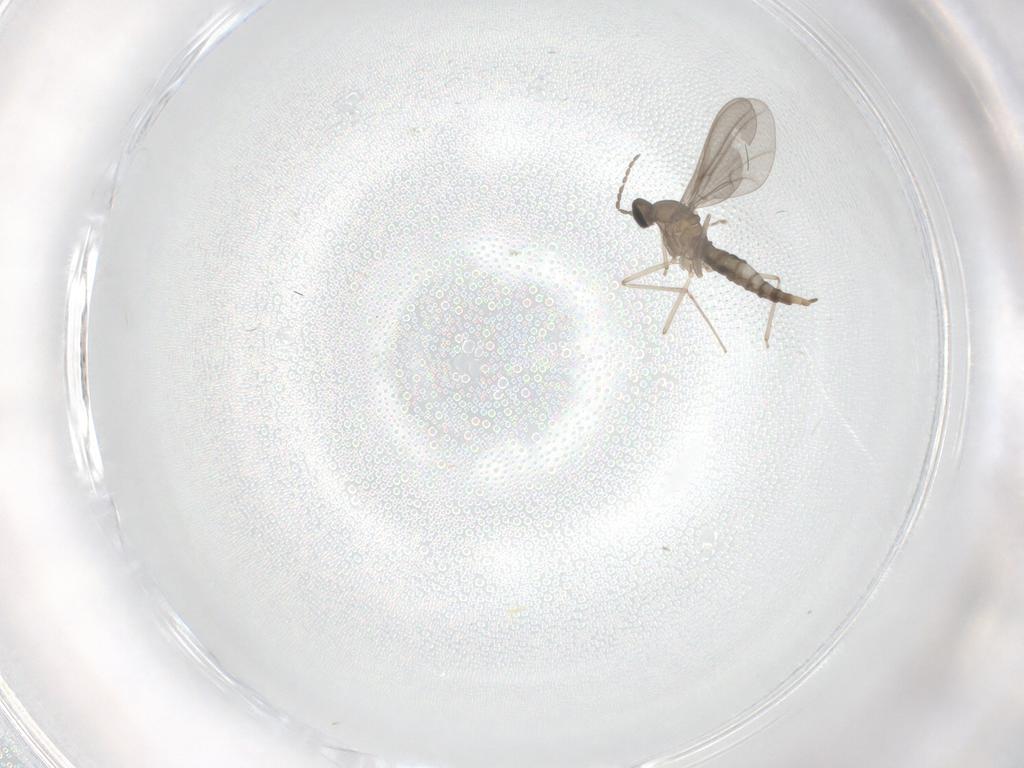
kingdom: Animalia
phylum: Arthropoda
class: Insecta
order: Diptera
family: Cecidomyiidae
